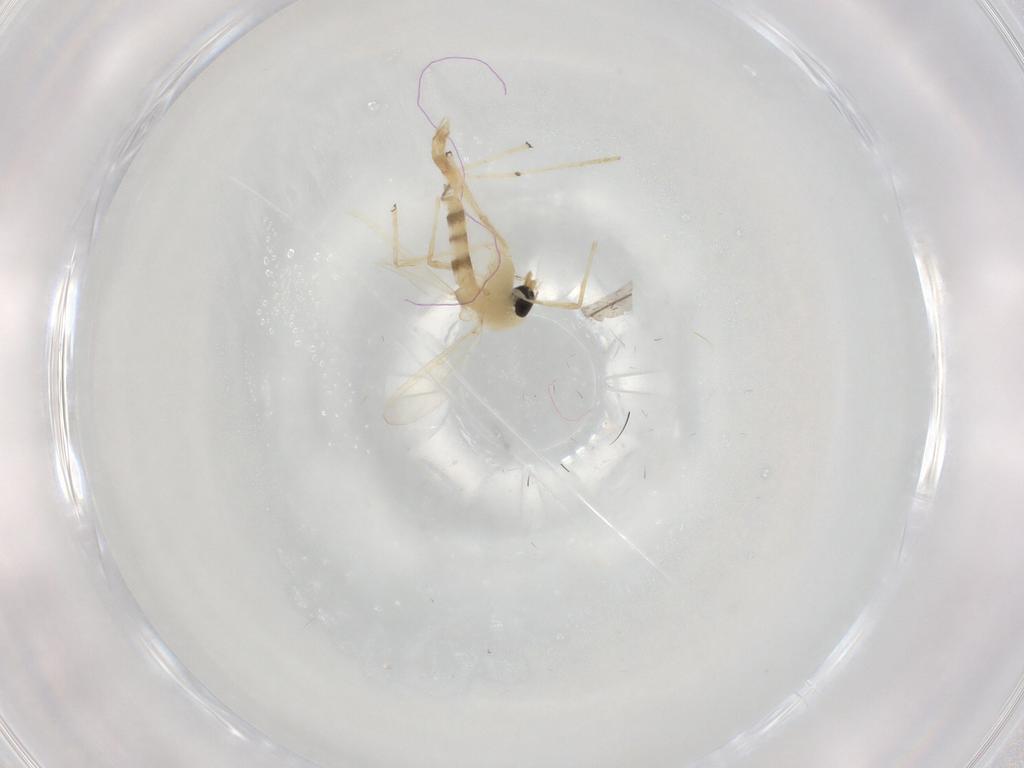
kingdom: Animalia
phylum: Arthropoda
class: Insecta
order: Diptera
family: Chironomidae
